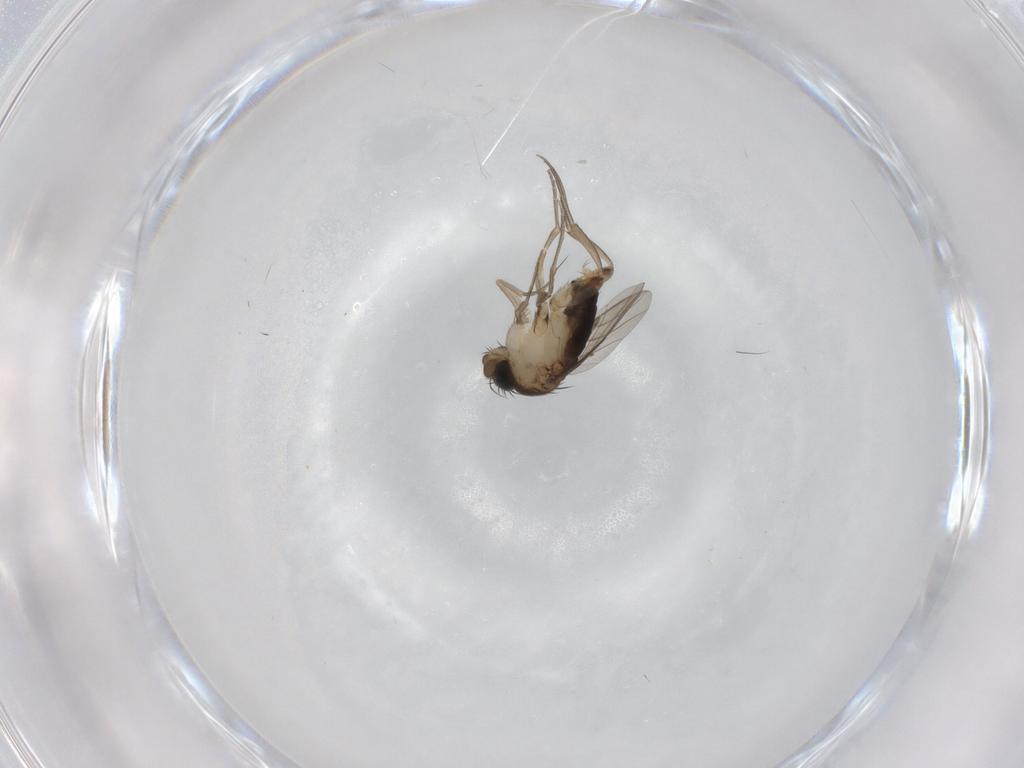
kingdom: Animalia
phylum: Arthropoda
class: Insecta
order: Diptera
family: Phoridae
